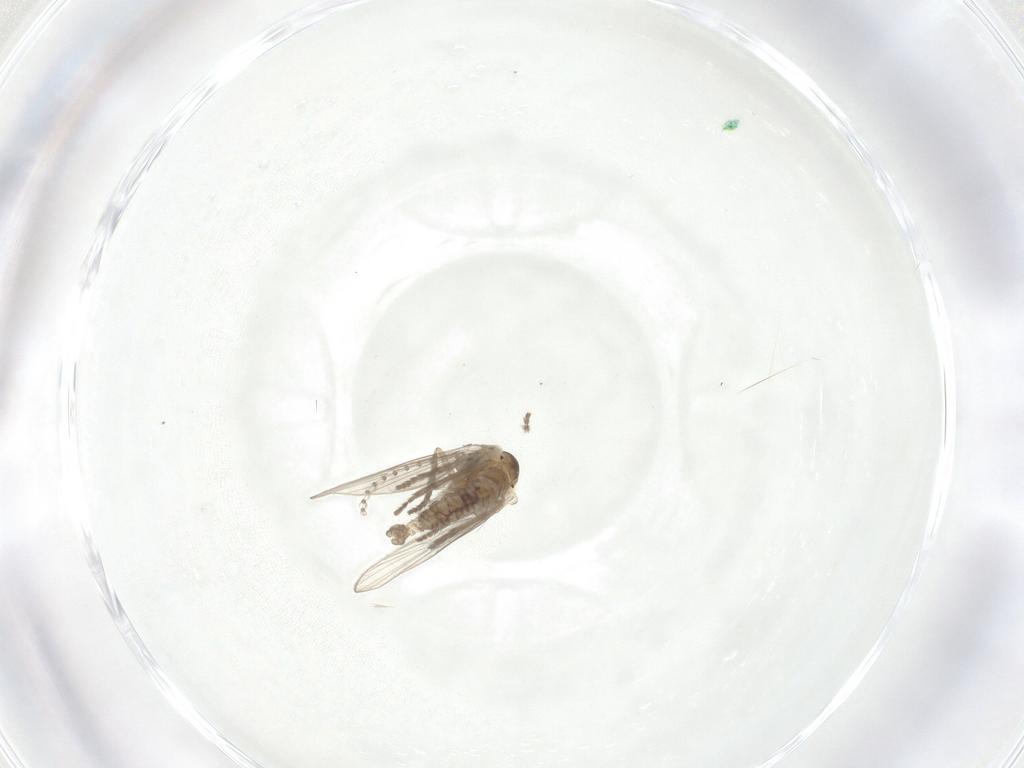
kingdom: Animalia
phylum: Arthropoda
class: Insecta
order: Diptera
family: Psychodidae
